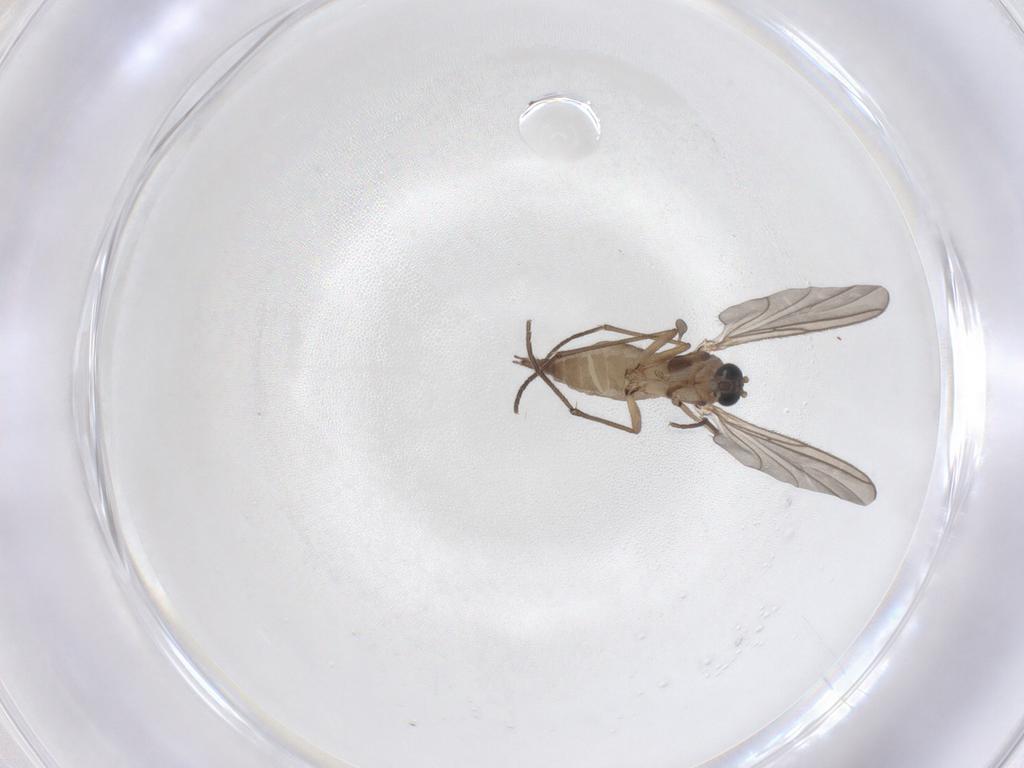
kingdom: Animalia
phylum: Arthropoda
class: Insecta
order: Diptera
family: Sciaridae
